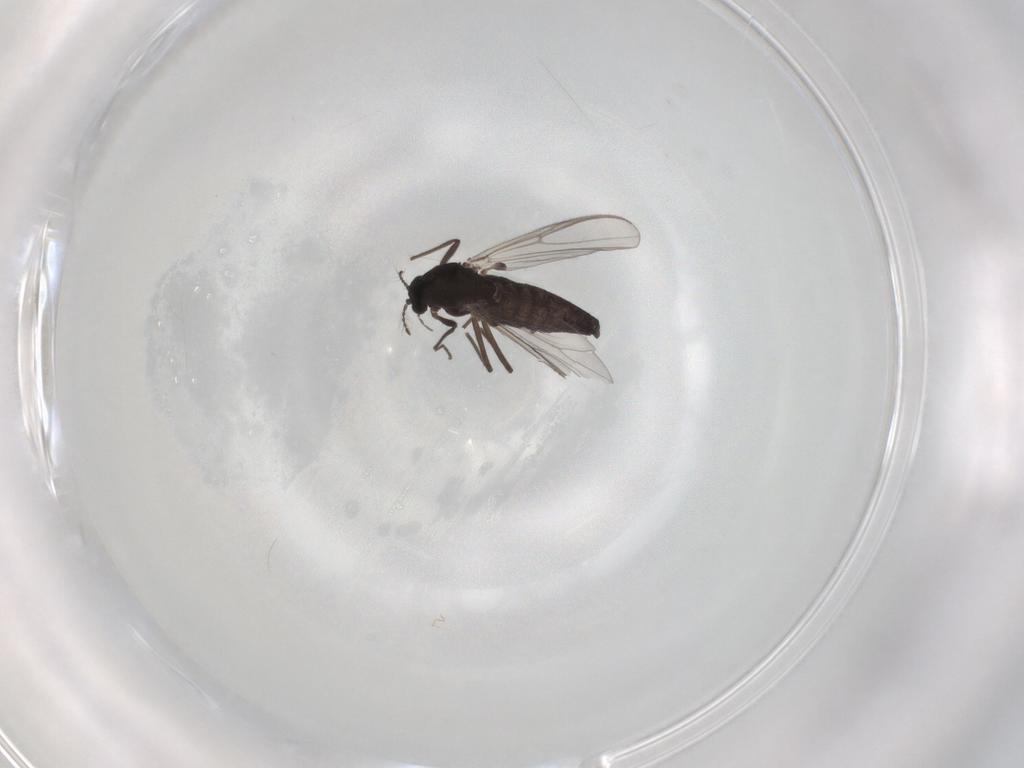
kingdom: Animalia
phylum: Arthropoda
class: Insecta
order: Diptera
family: Chironomidae
